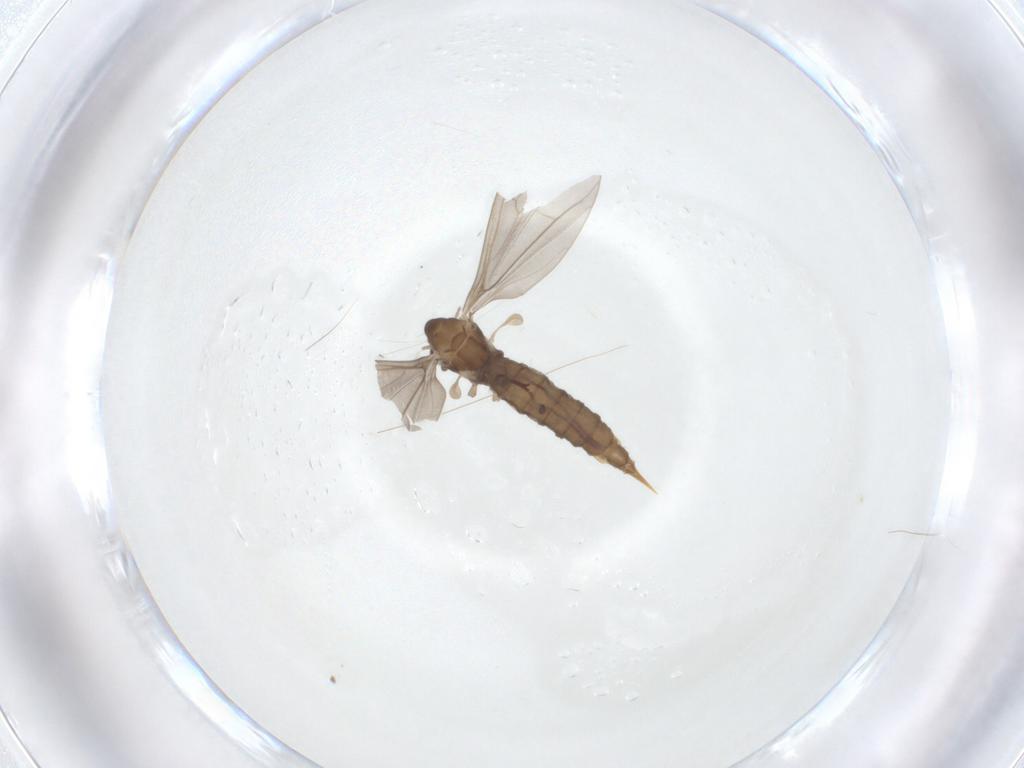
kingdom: Animalia
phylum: Arthropoda
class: Insecta
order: Diptera
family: Limoniidae
